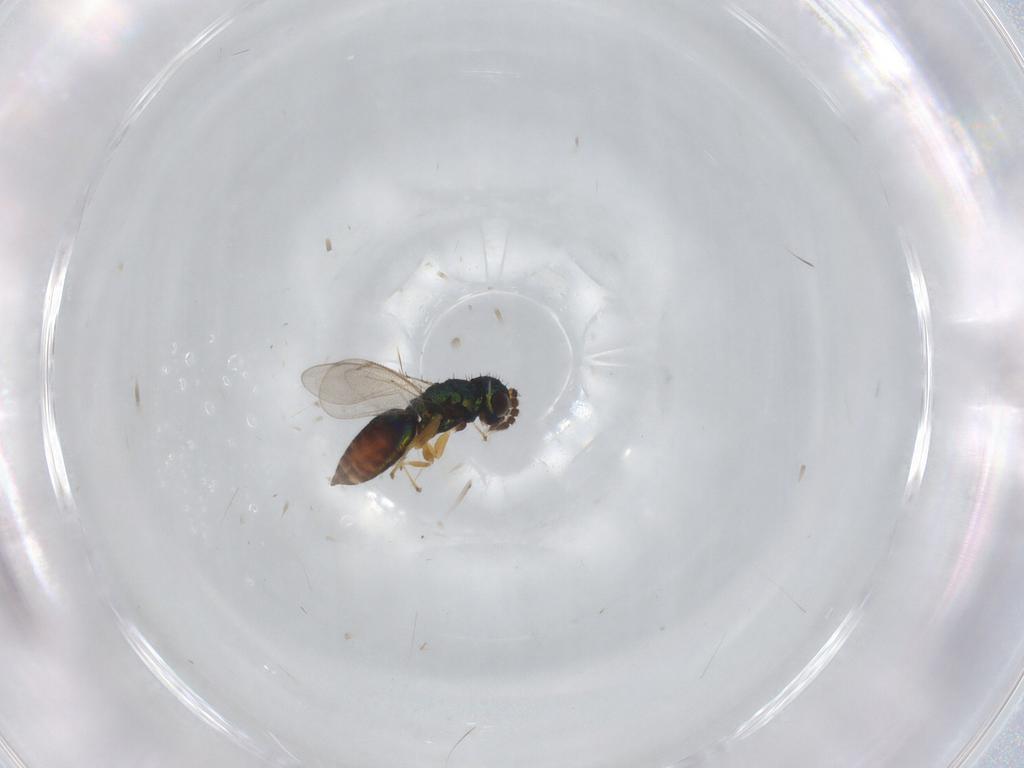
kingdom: Animalia
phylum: Arthropoda
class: Insecta
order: Hymenoptera
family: Eulophidae
